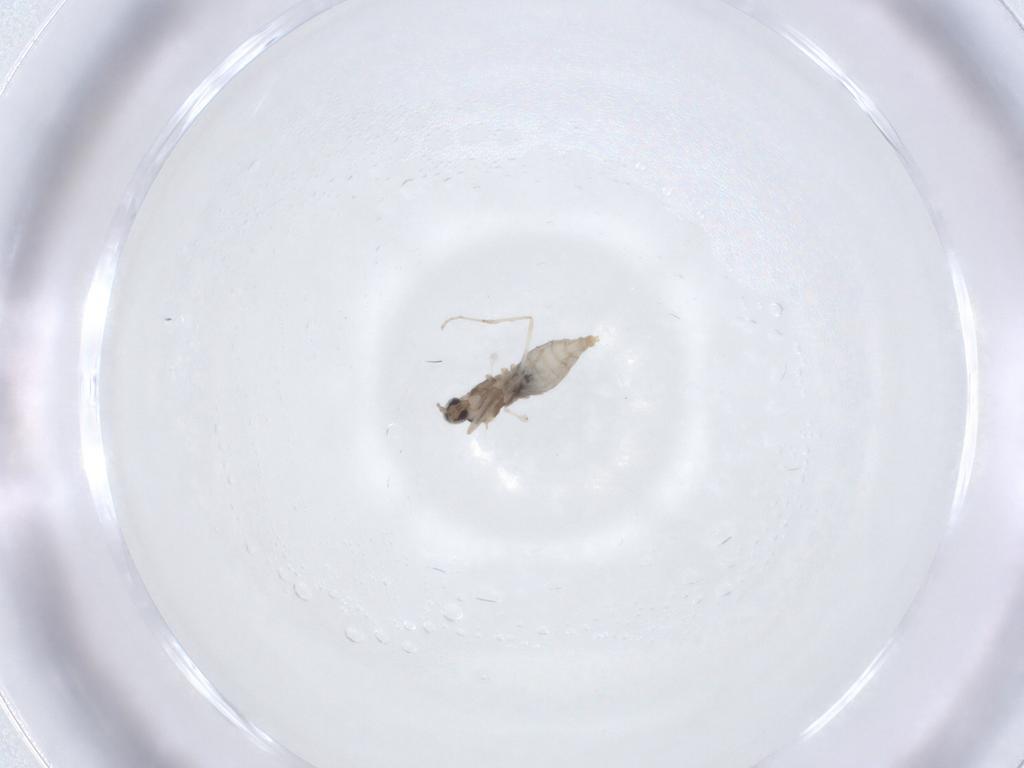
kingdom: Animalia
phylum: Arthropoda
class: Insecta
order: Diptera
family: Cecidomyiidae
